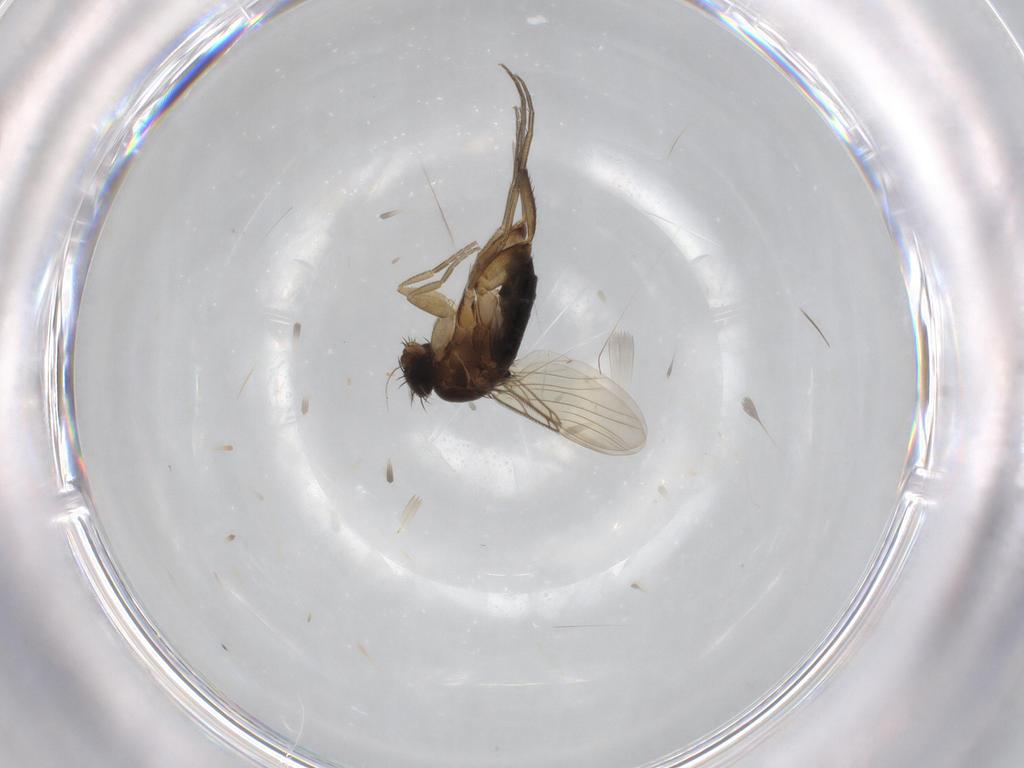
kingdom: Animalia
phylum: Arthropoda
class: Insecta
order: Diptera
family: Phoridae
